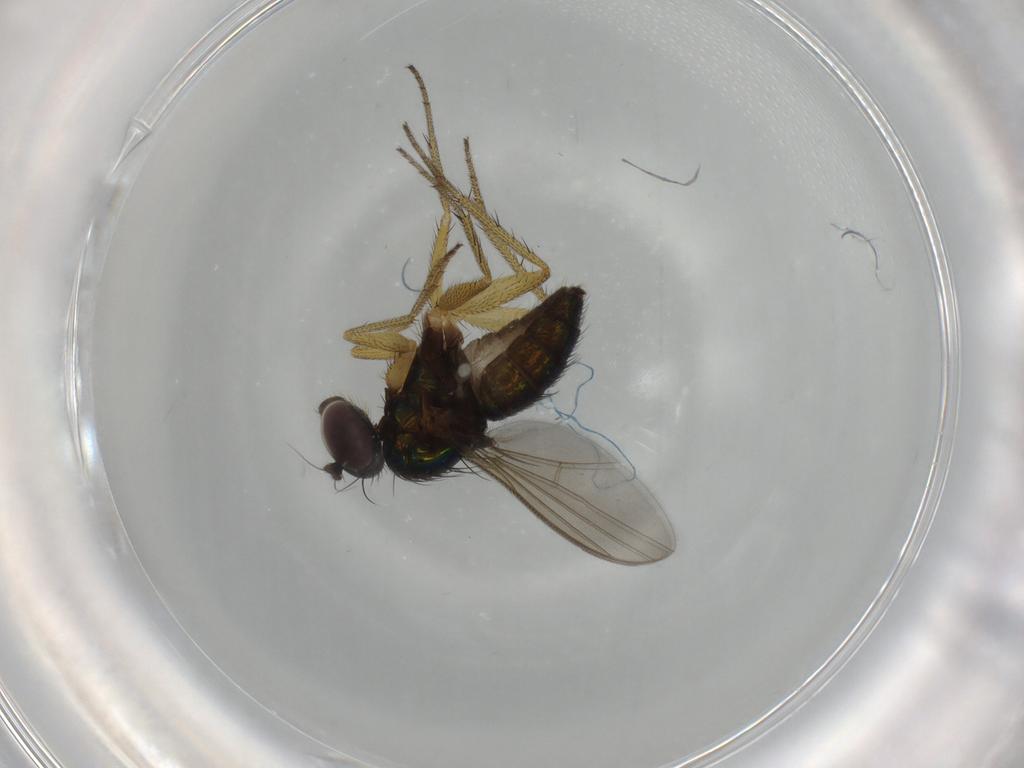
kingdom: Animalia
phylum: Arthropoda
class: Insecta
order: Diptera
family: Dolichopodidae
